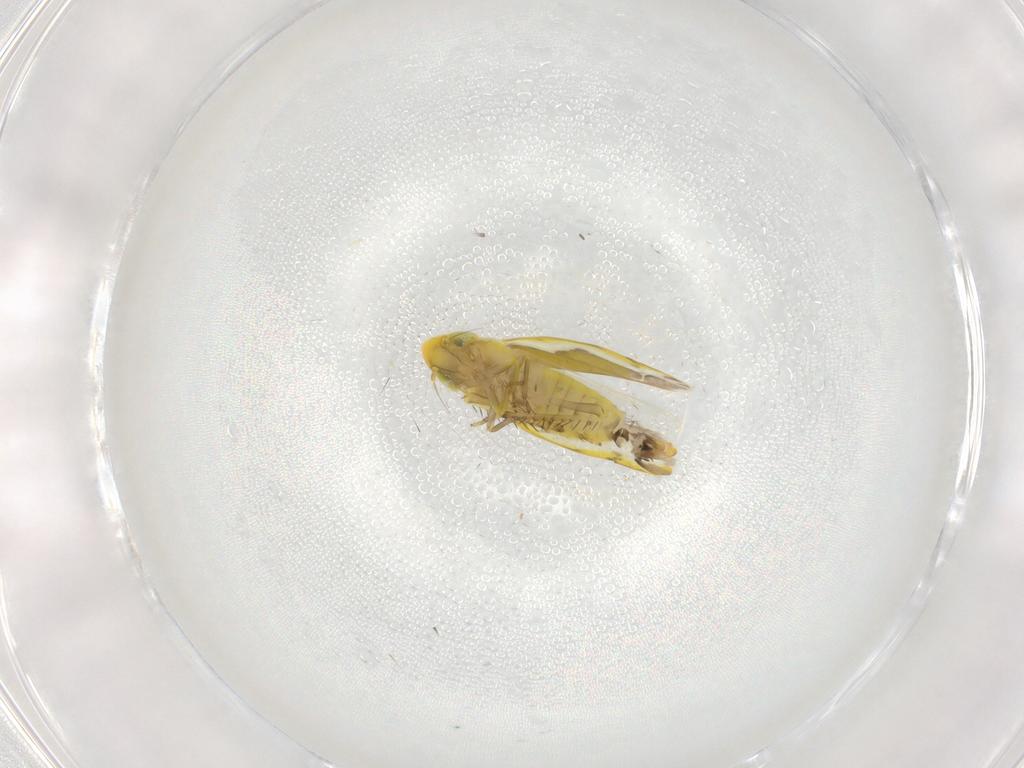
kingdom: Animalia
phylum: Arthropoda
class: Insecta
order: Hemiptera
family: Cicadellidae
